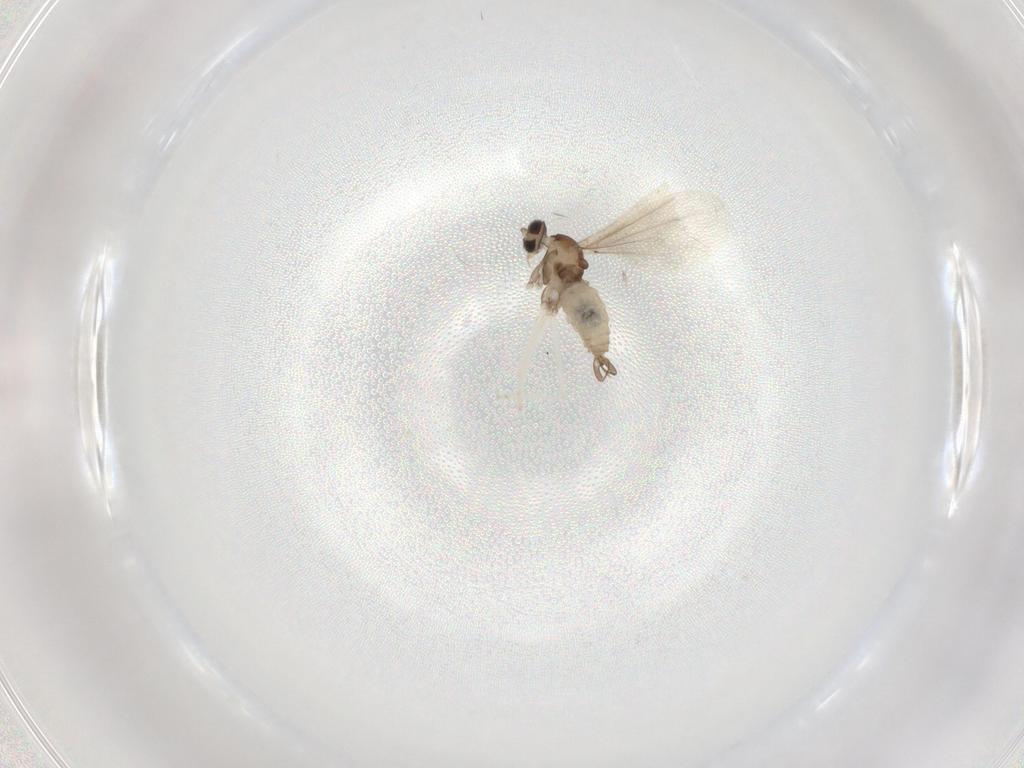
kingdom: Animalia
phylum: Arthropoda
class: Insecta
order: Diptera
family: Cecidomyiidae
